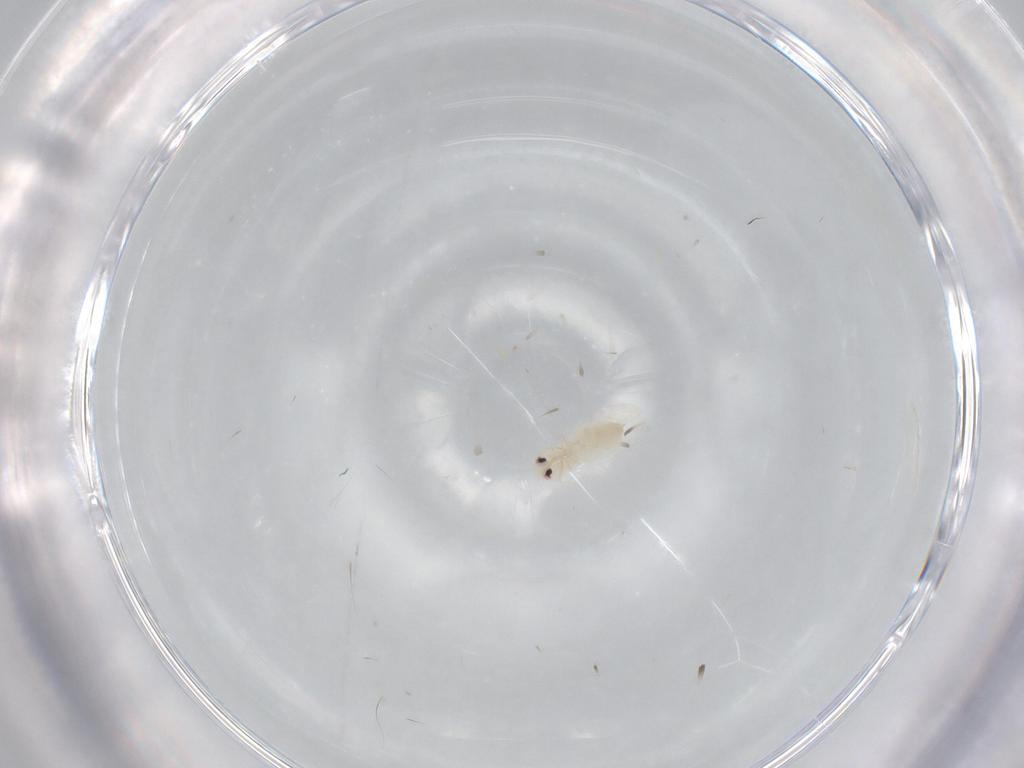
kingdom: Animalia
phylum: Arthropoda
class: Insecta
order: Hemiptera
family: Aleyrodidae
